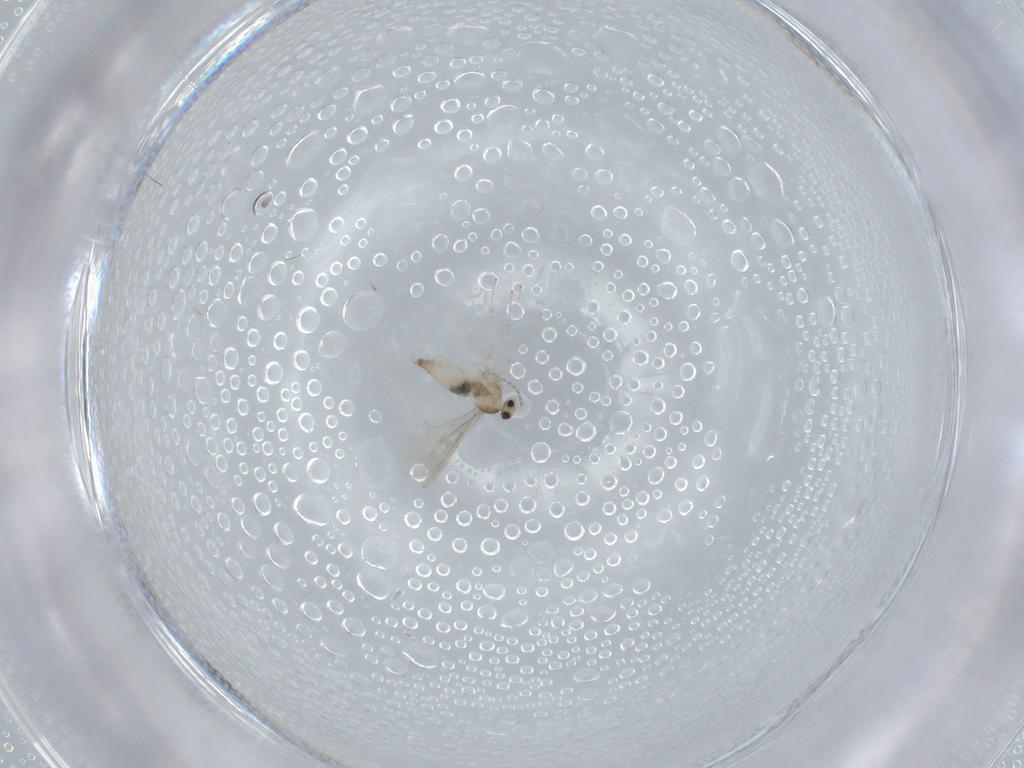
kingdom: Animalia
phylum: Arthropoda
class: Insecta
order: Diptera
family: Cecidomyiidae
